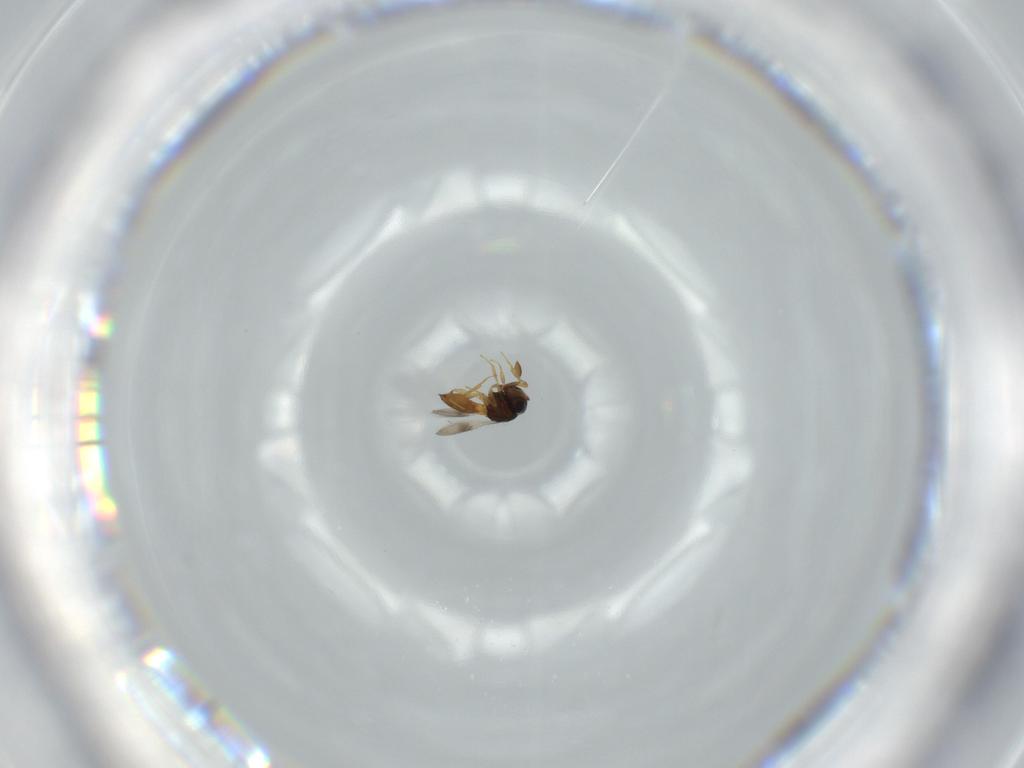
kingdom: Animalia
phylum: Arthropoda
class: Insecta
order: Hymenoptera
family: Scelionidae
